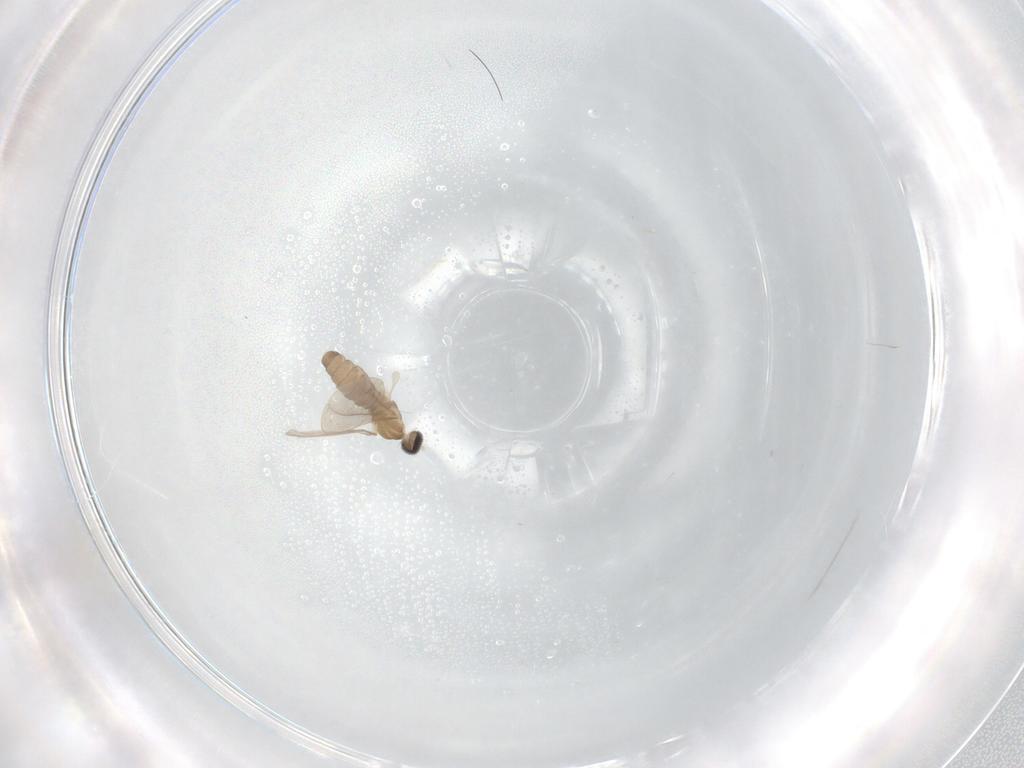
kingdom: Animalia
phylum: Arthropoda
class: Insecta
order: Diptera
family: Cecidomyiidae
